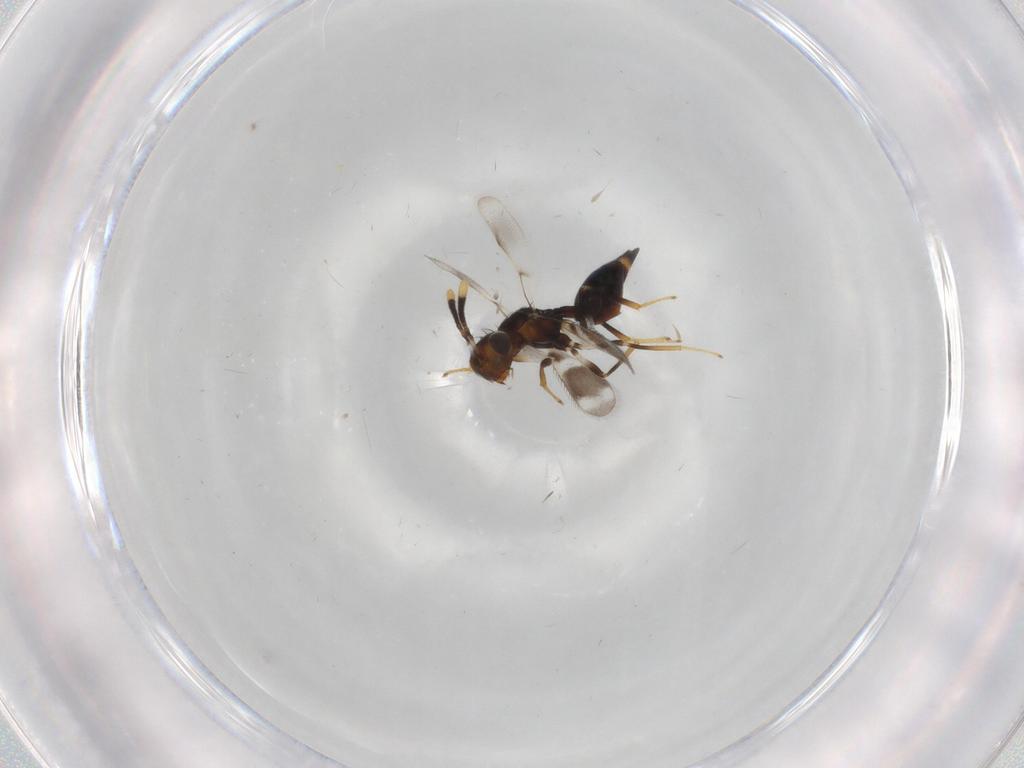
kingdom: Animalia
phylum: Arthropoda
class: Insecta
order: Hymenoptera
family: Diparidae
